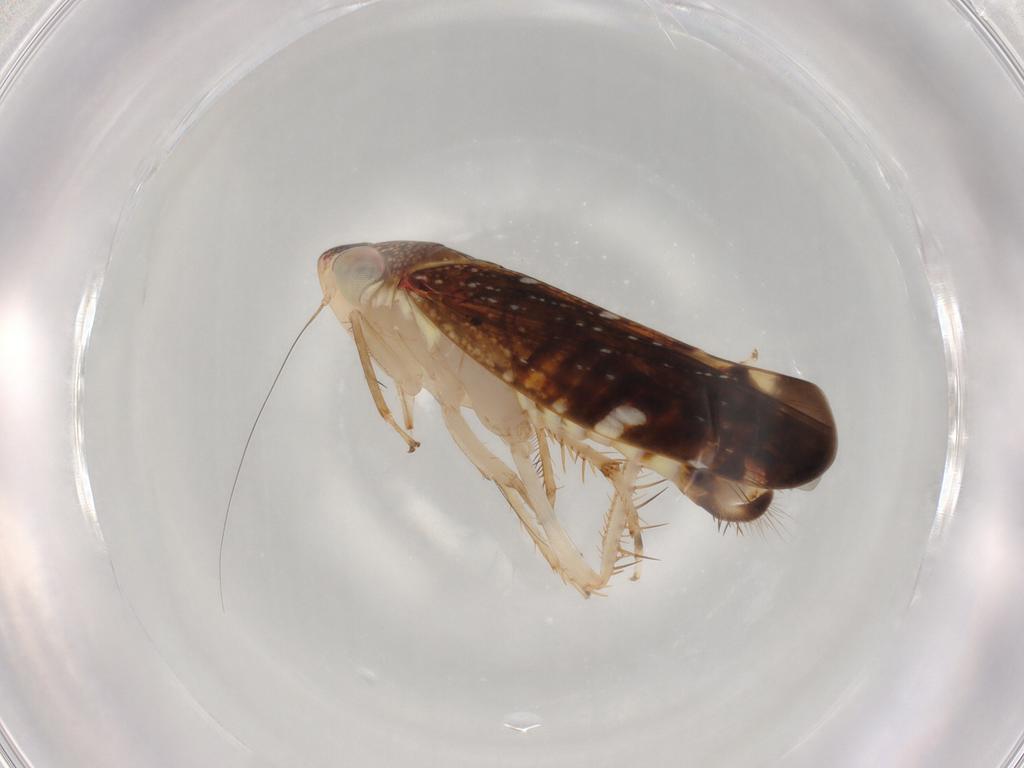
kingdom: Animalia
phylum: Arthropoda
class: Insecta
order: Hemiptera
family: Cicadellidae
